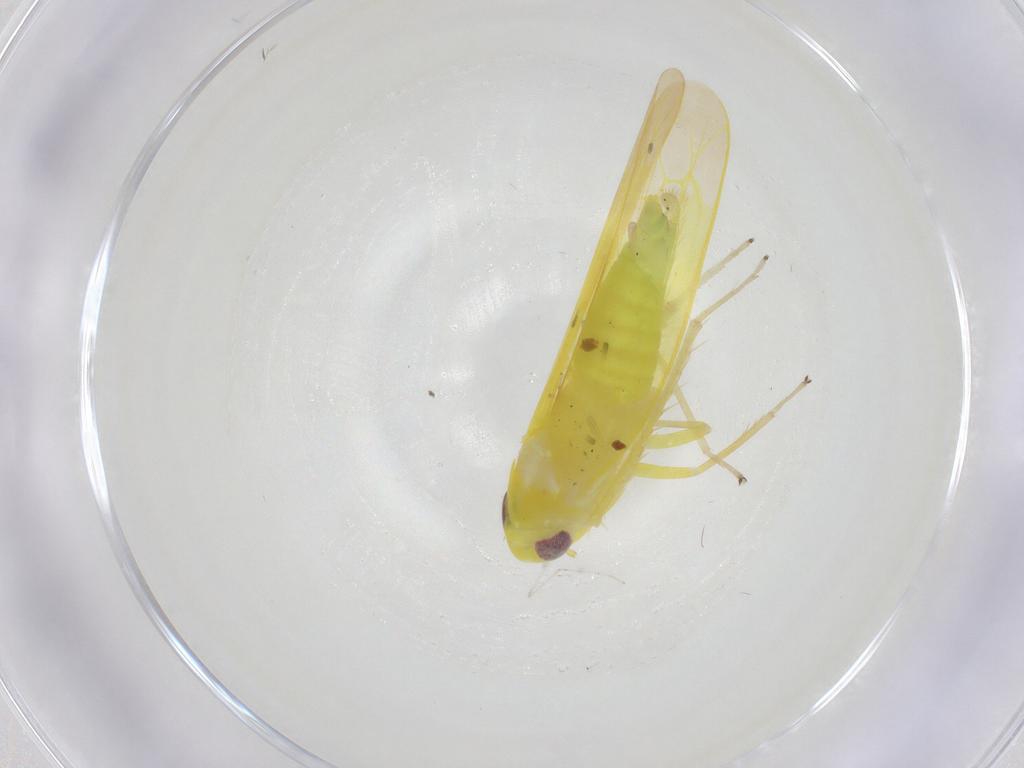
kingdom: Animalia
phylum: Arthropoda
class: Insecta
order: Hemiptera
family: Cicadellidae
